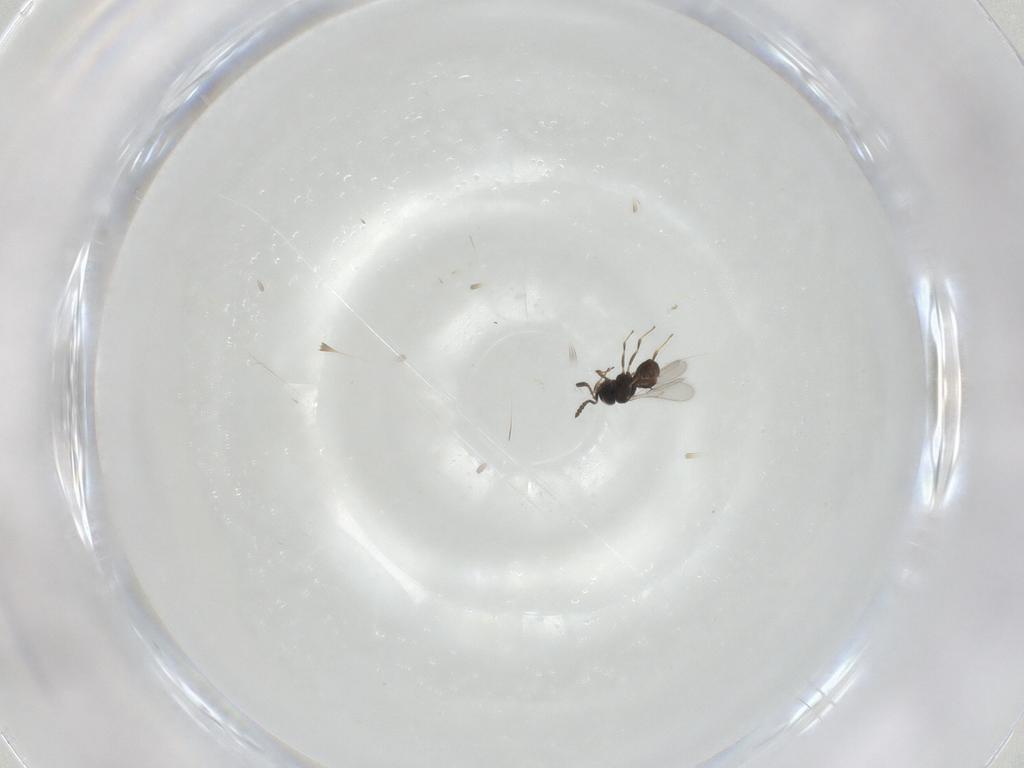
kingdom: Animalia
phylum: Arthropoda
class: Insecta
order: Hymenoptera
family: Scelionidae
